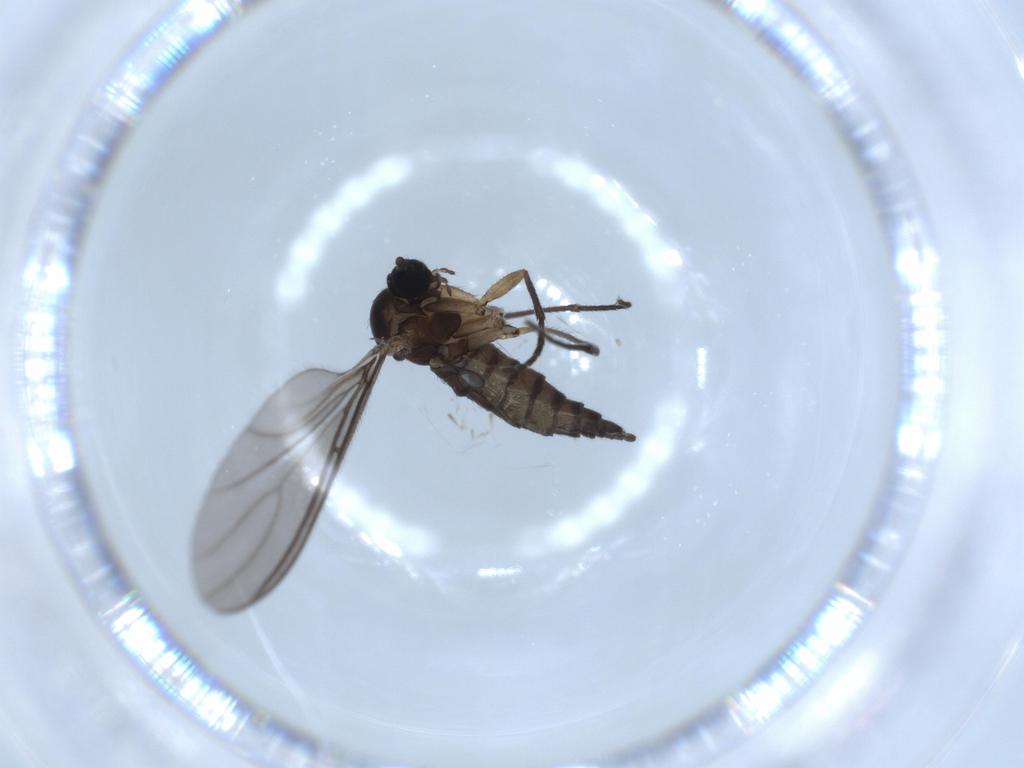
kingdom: Animalia
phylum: Arthropoda
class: Insecta
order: Diptera
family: Sciaridae
